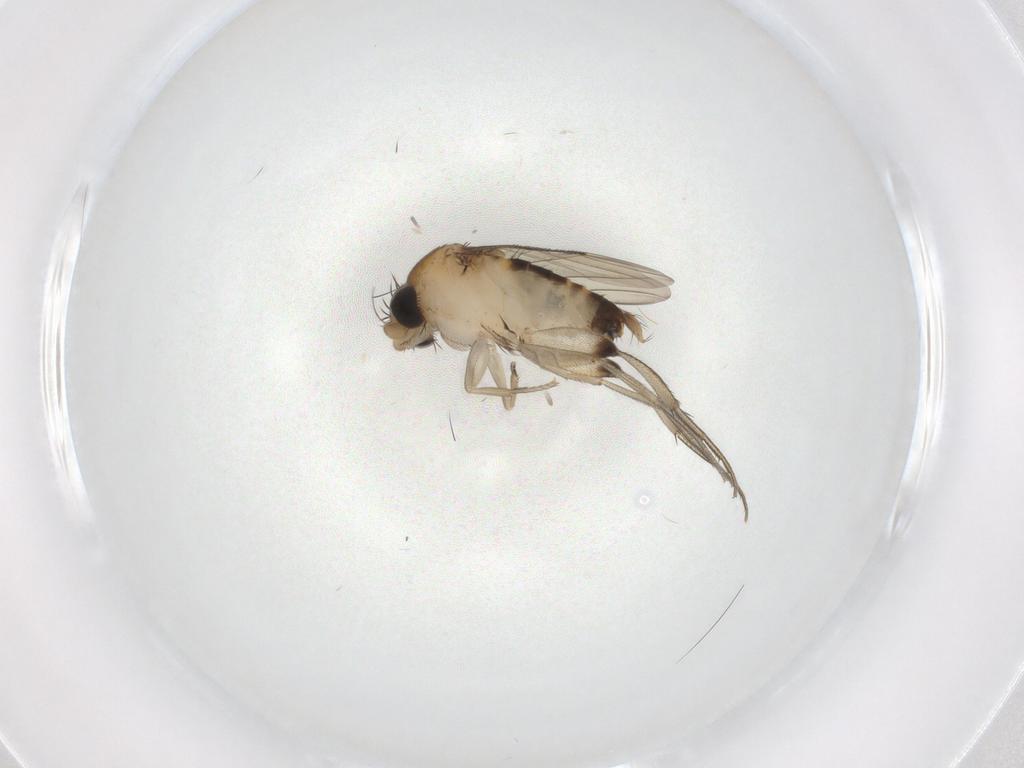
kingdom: Animalia
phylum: Arthropoda
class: Insecta
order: Diptera
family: Phoridae
